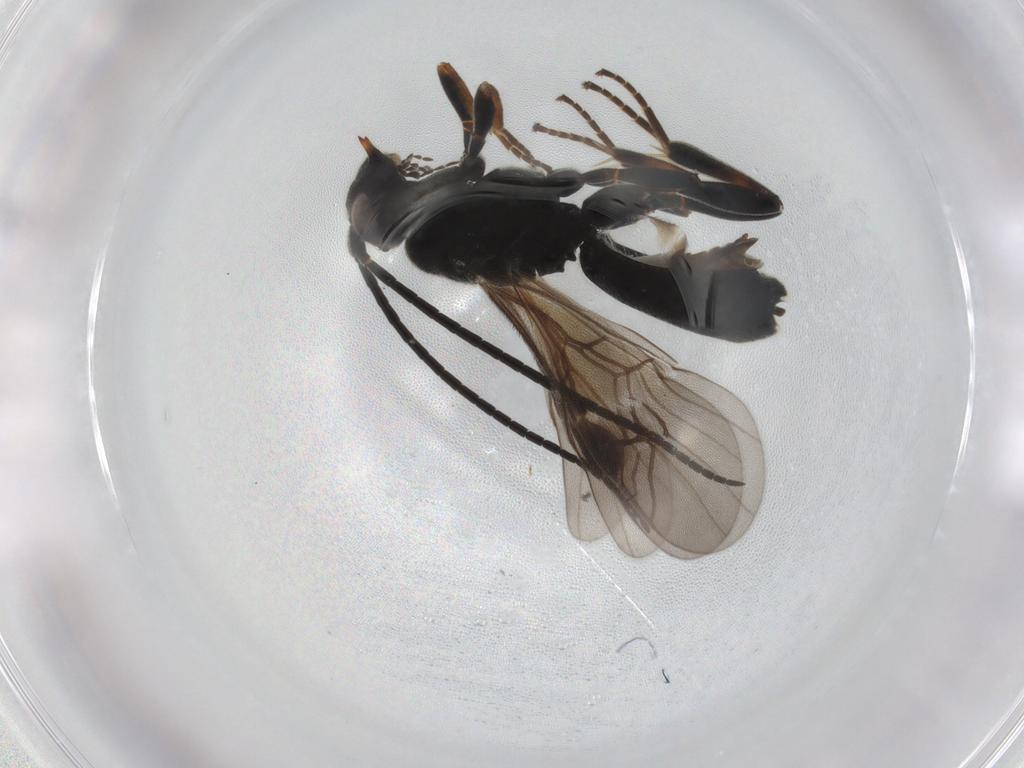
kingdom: Animalia
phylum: Arthropoda
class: Insecta
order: Hymenoptera
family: Braconidae
